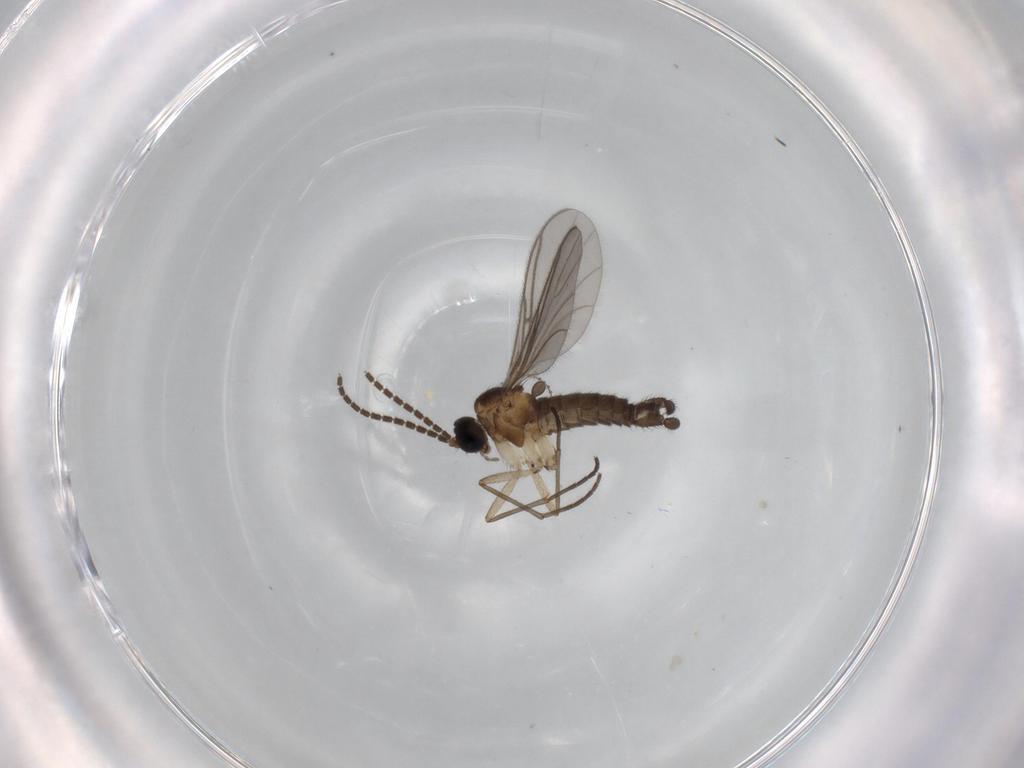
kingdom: Animalia
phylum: Arthropoda
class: Insecta
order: Diptera
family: Sciaridae
